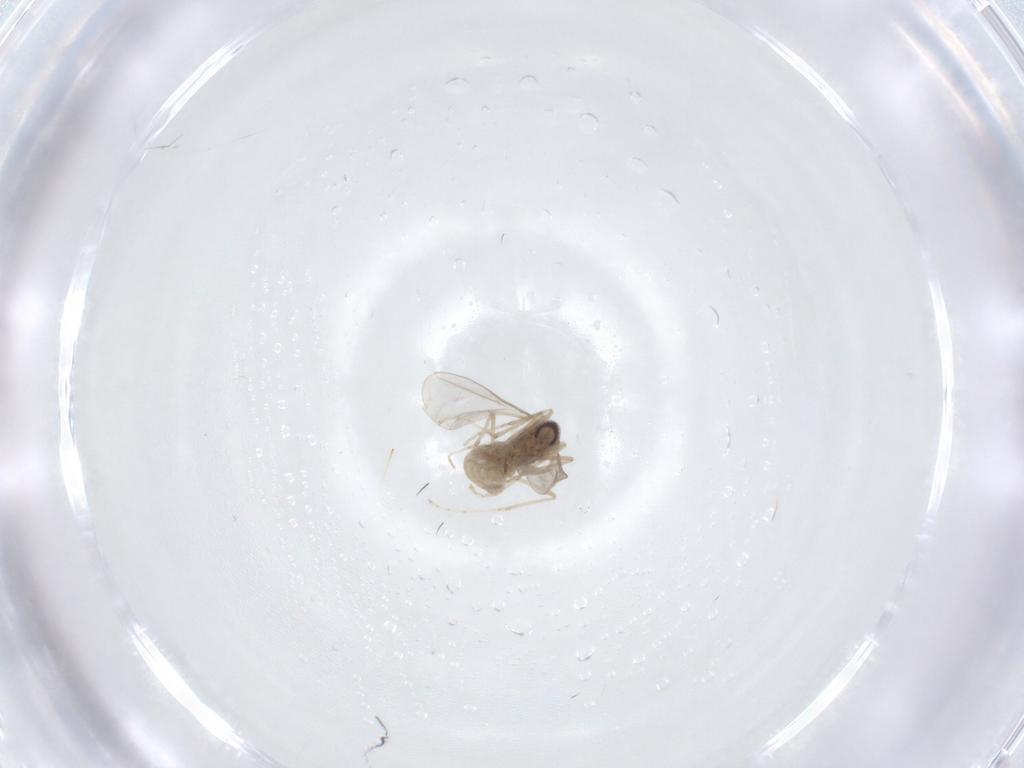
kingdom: Animalia
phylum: Arthropoda
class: Insecta
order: Diptera
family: Cecidomyiidae
